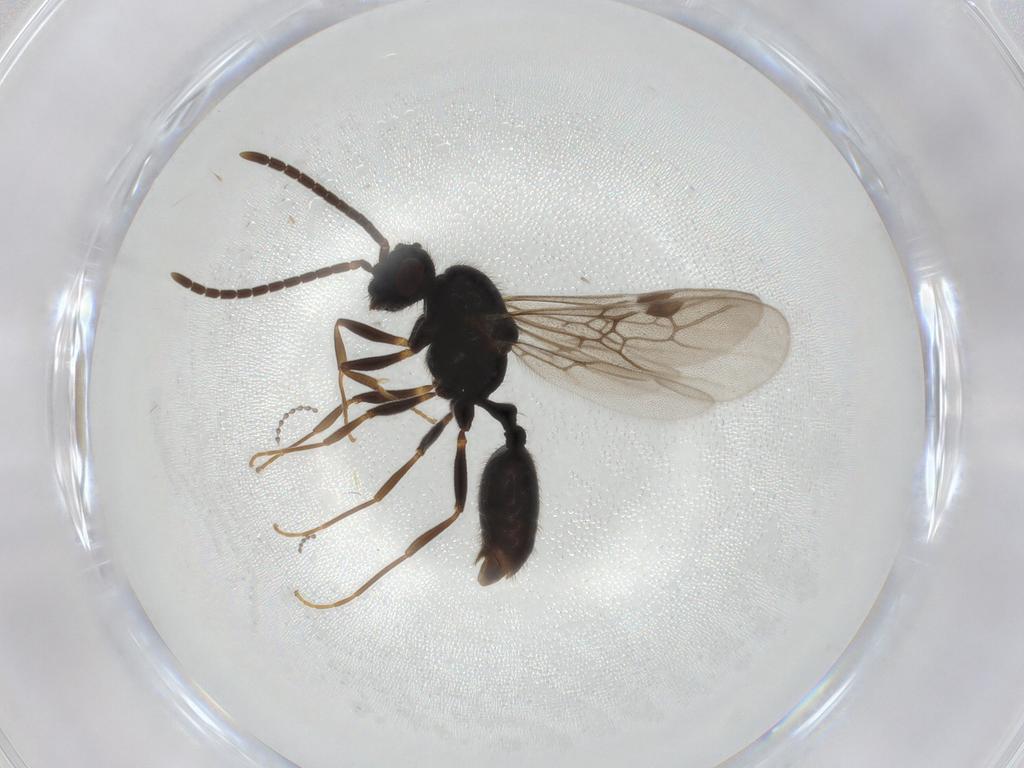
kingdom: Animalia
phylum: Arthropoda
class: Insecta
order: Hymenoptera
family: Formicidae
